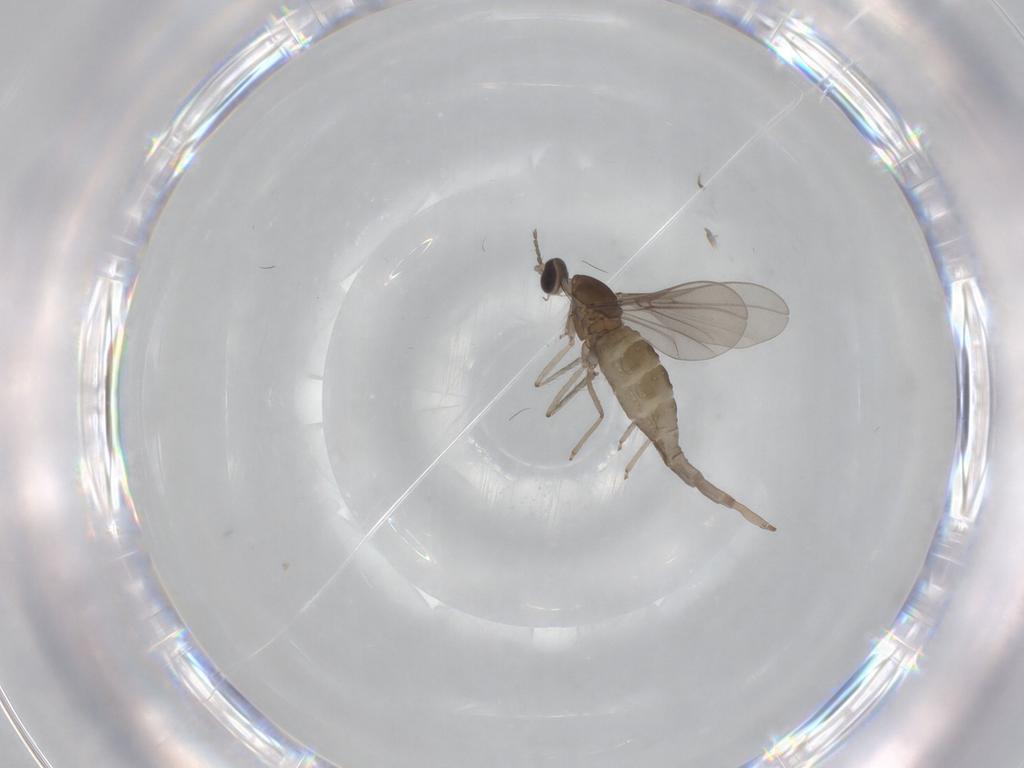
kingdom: Animalia
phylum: Arthropoda
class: Insecta
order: Diptera
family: Cecidomyiidae
